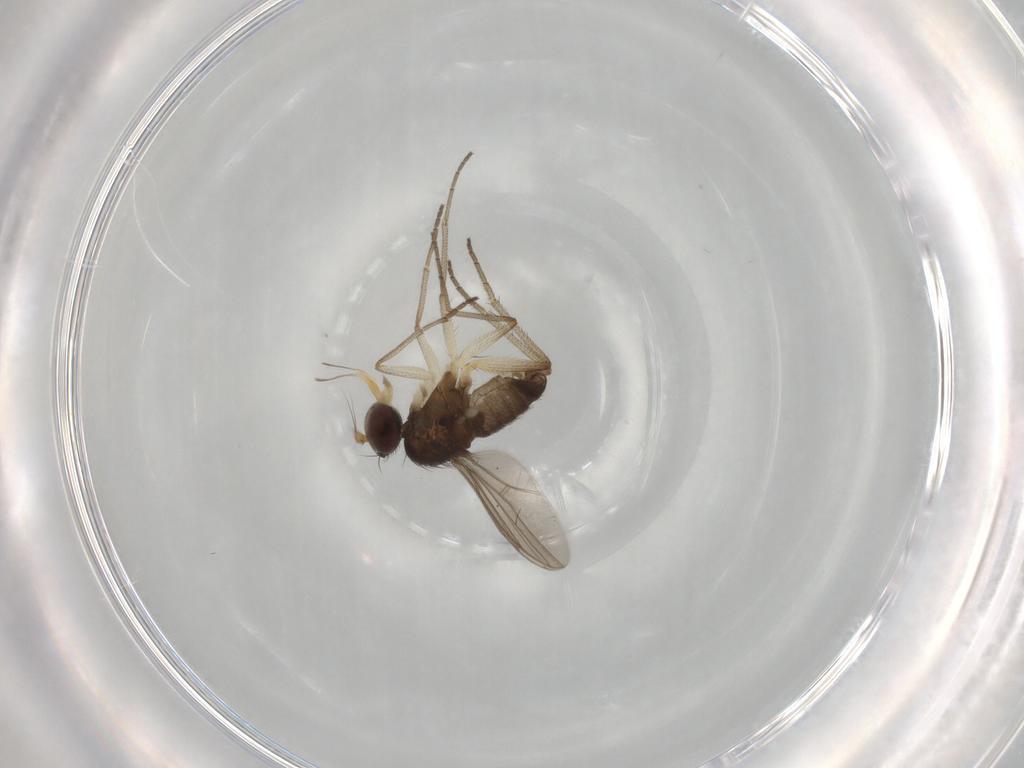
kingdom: Animalia
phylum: Arthropoda
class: Insecta
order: Diptera
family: Dolichopodidae
